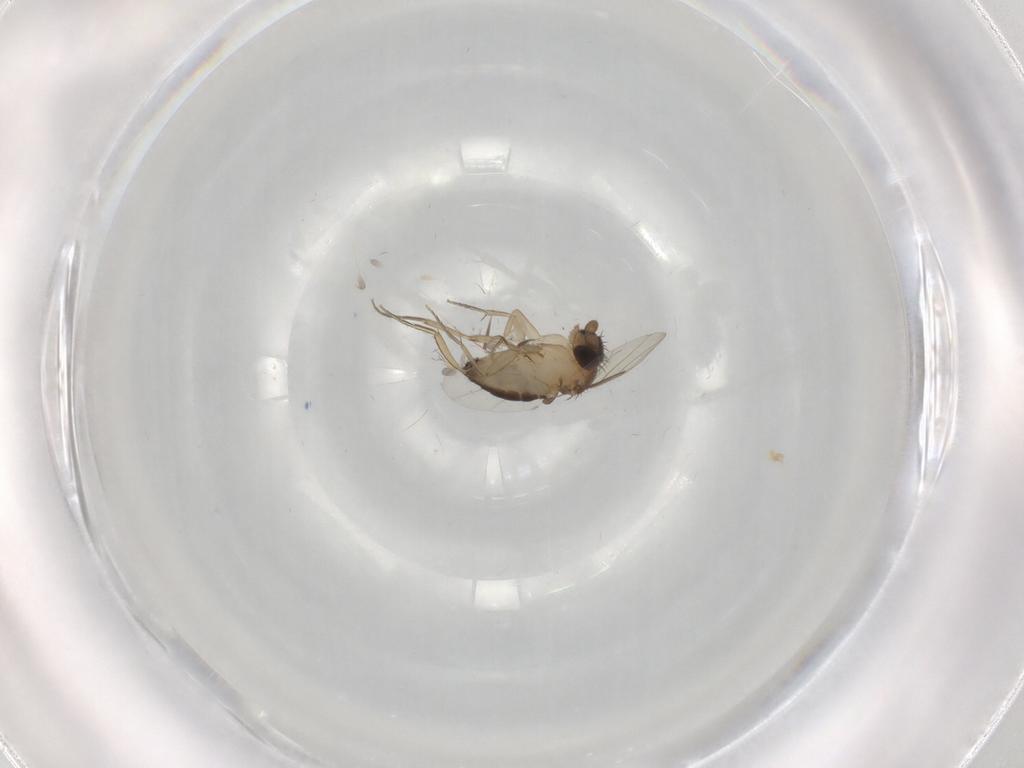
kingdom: Animalia
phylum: Arthropoda
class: Insecta
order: Diptera
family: Phoridae
